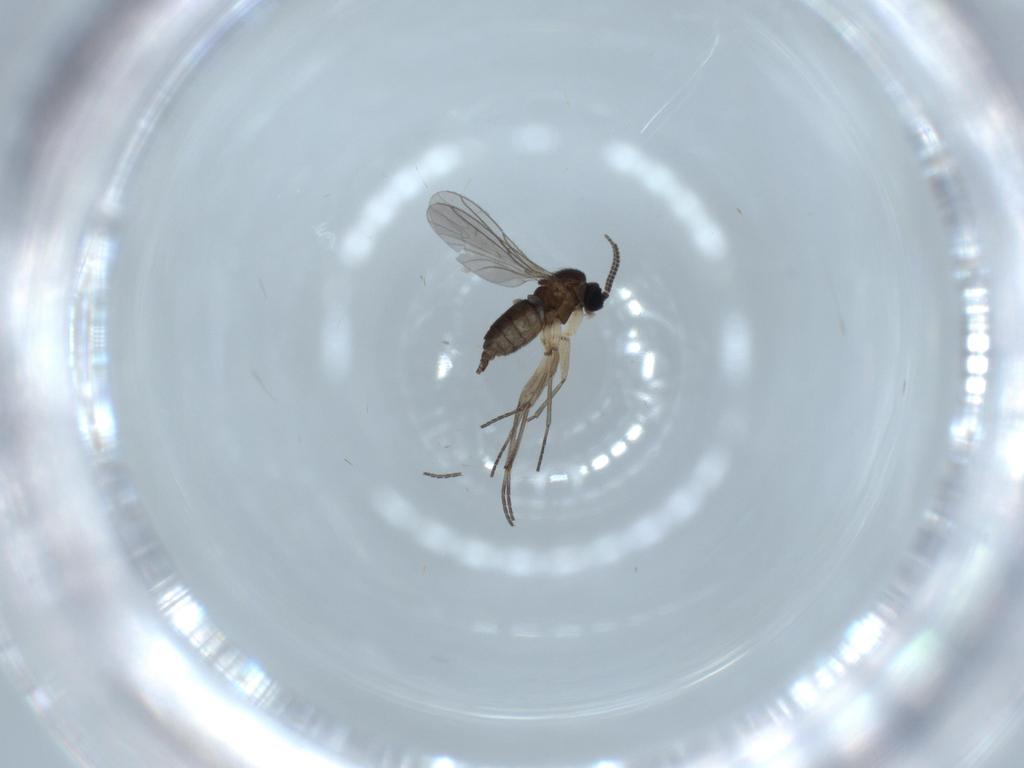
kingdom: Animalia
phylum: Arthropoda
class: Insecta
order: Diptera
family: Sciaridae
